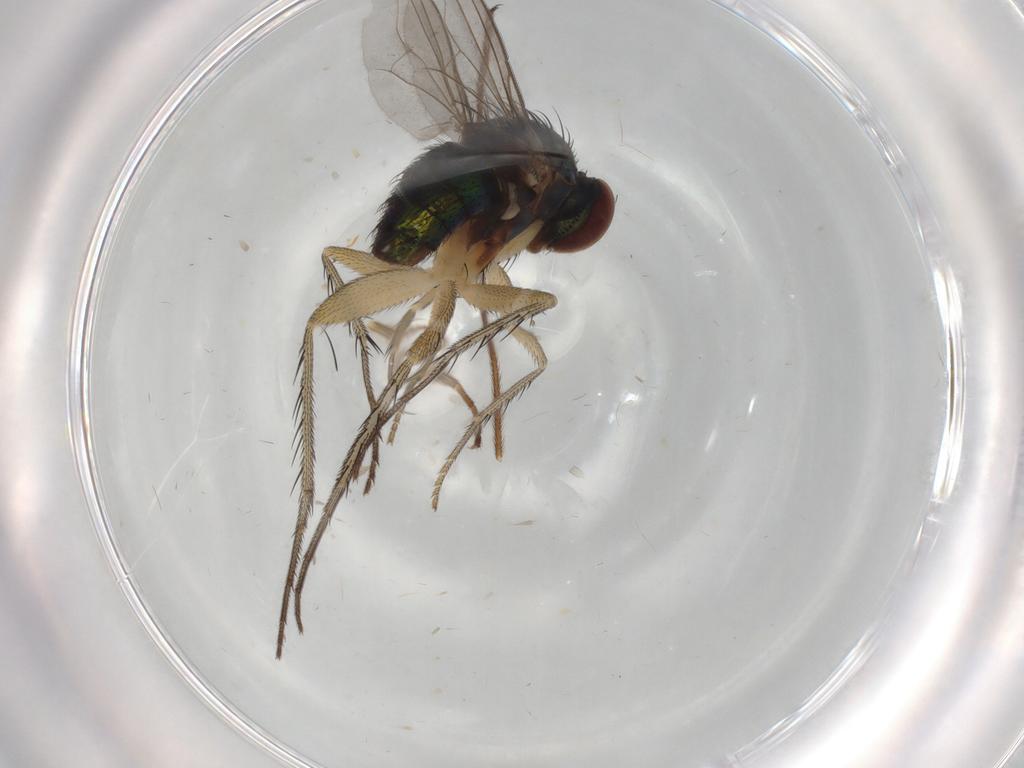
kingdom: Animalia
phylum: Arthropoda
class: Insecta
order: Diptera
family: Dolichopodidae
